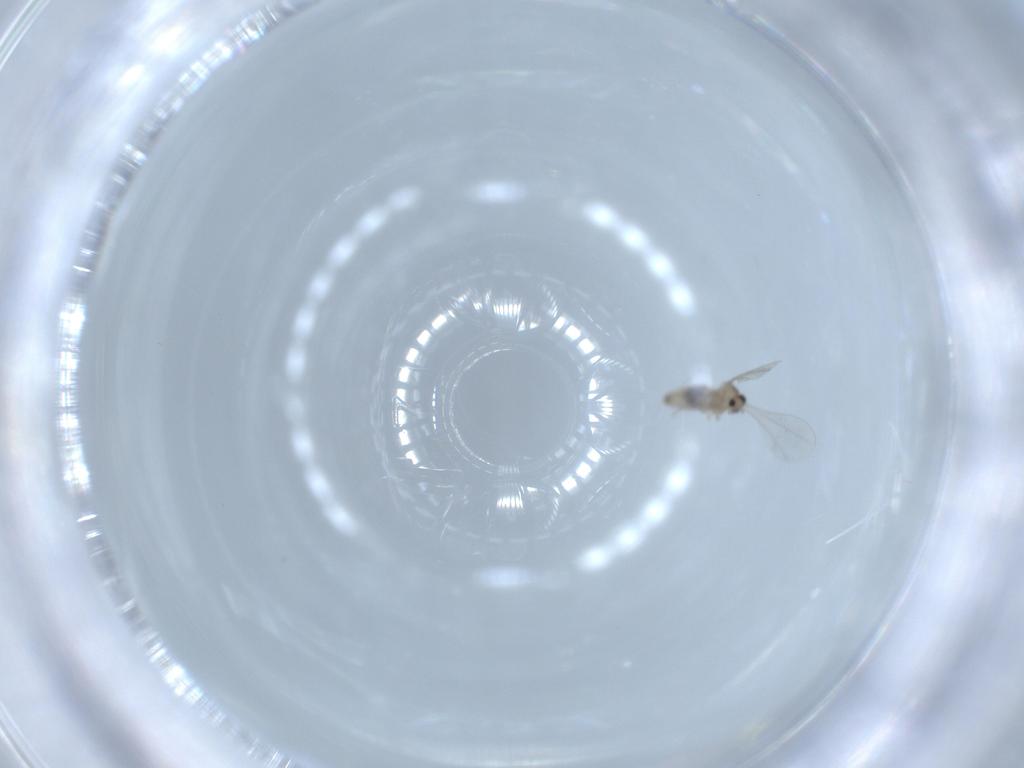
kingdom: Animalia
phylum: Arthropoda
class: Insecta
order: Diptera
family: Cecidomyiidae
